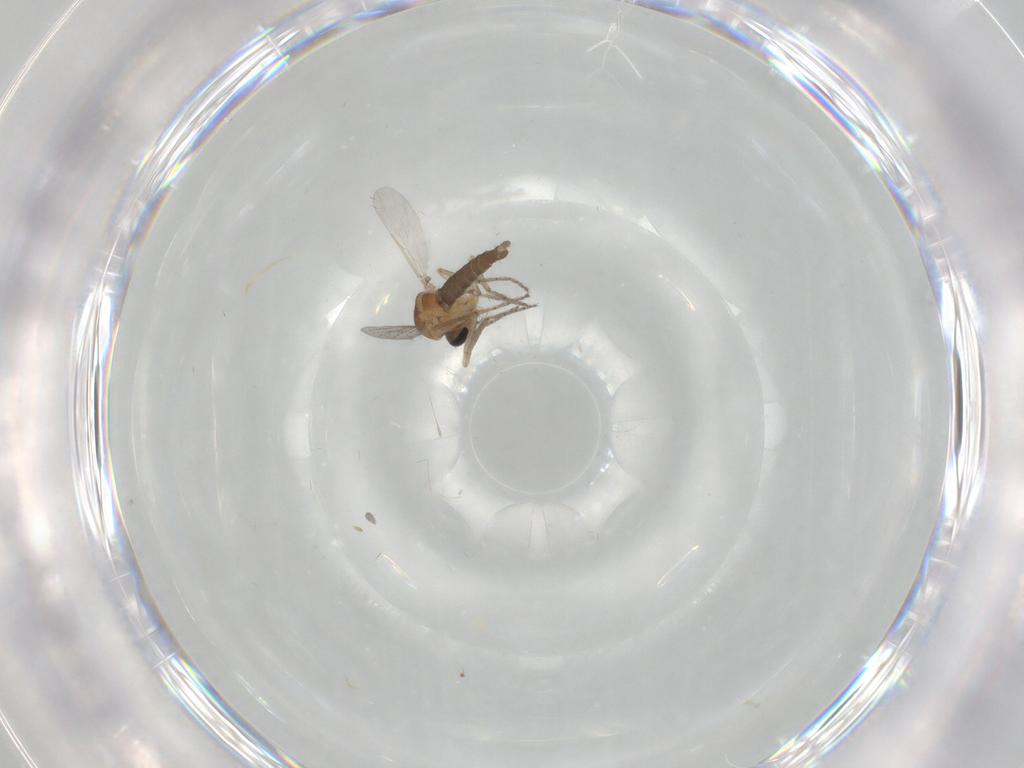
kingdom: Animalia
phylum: Arthropoda
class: Insecta
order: Diptera
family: Ceratopogonidae
